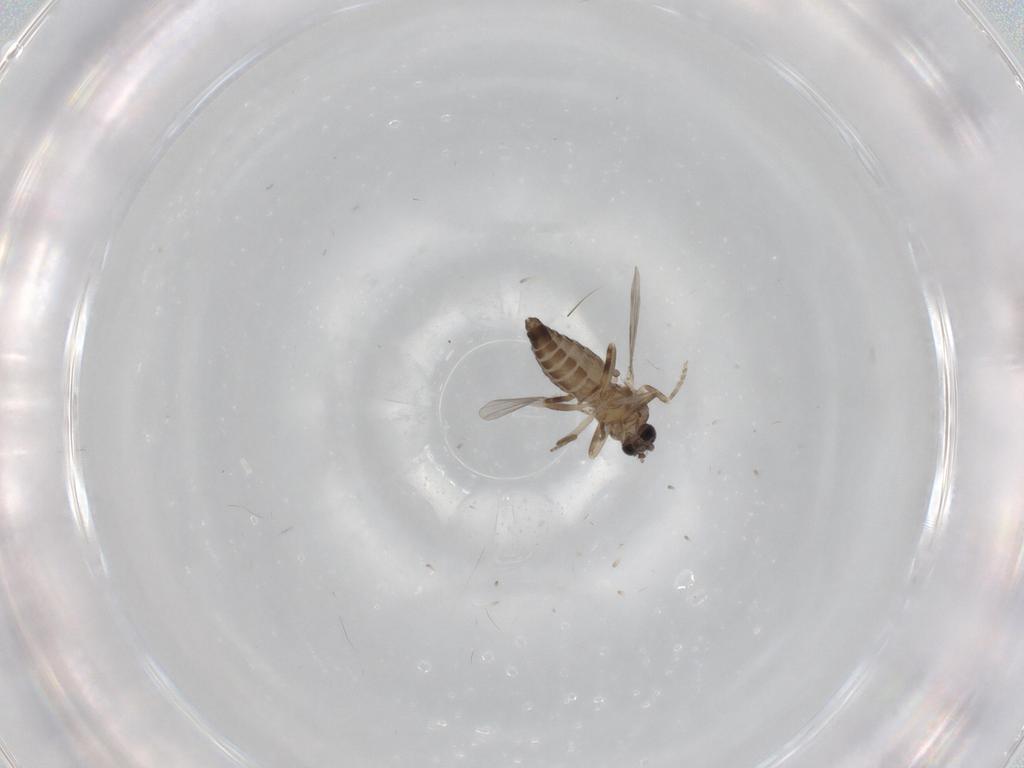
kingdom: Animalia
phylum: Arthropoda
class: Insecta
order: Diptera
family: Ceratopogonidae
